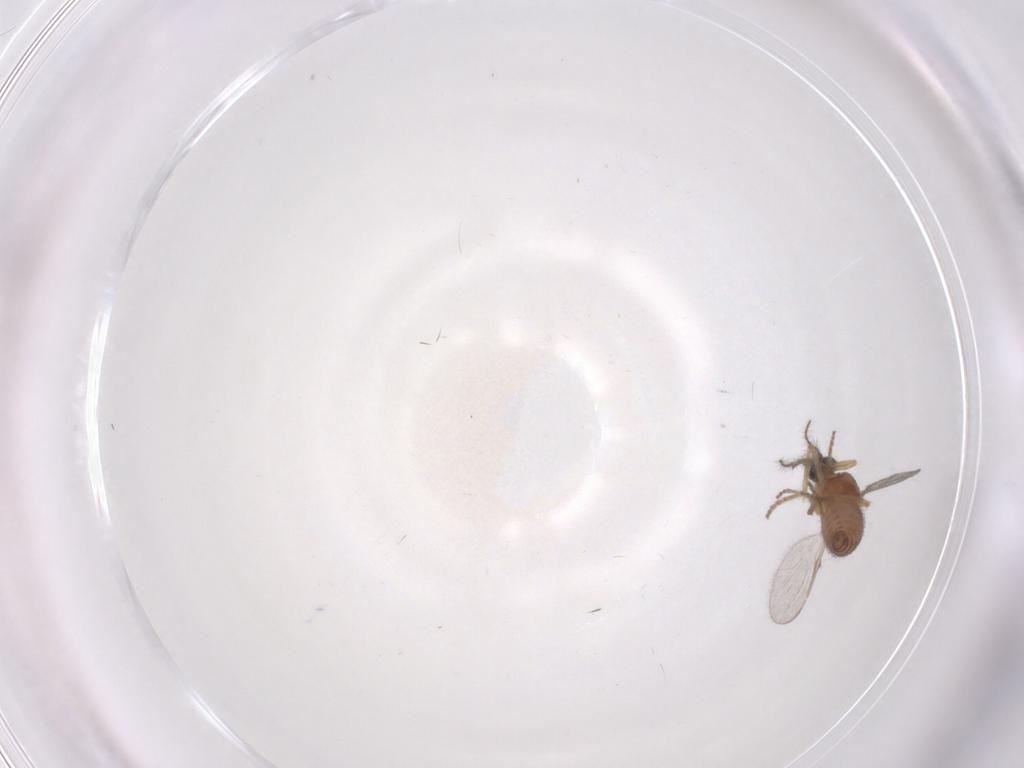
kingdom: Animalia
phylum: Arthropoda
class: Insecta
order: Diptera
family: Ceratopogonidae
